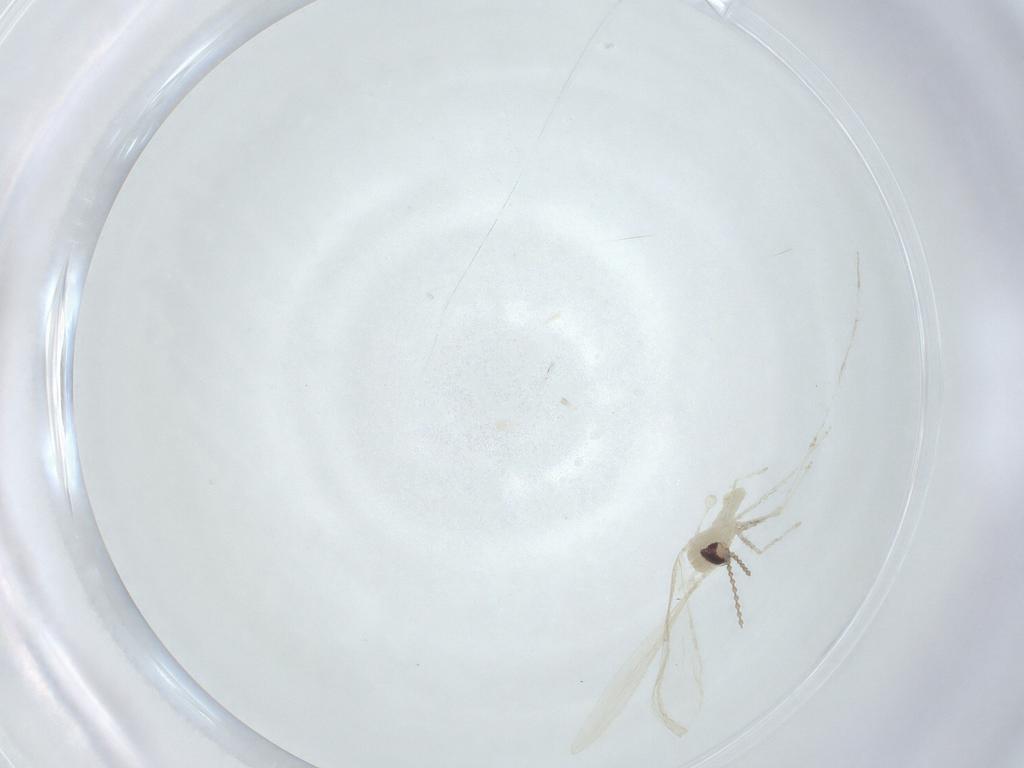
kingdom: Animalia
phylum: Arthropoda
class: Insecta
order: Diptera
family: Cecidomyiidae
